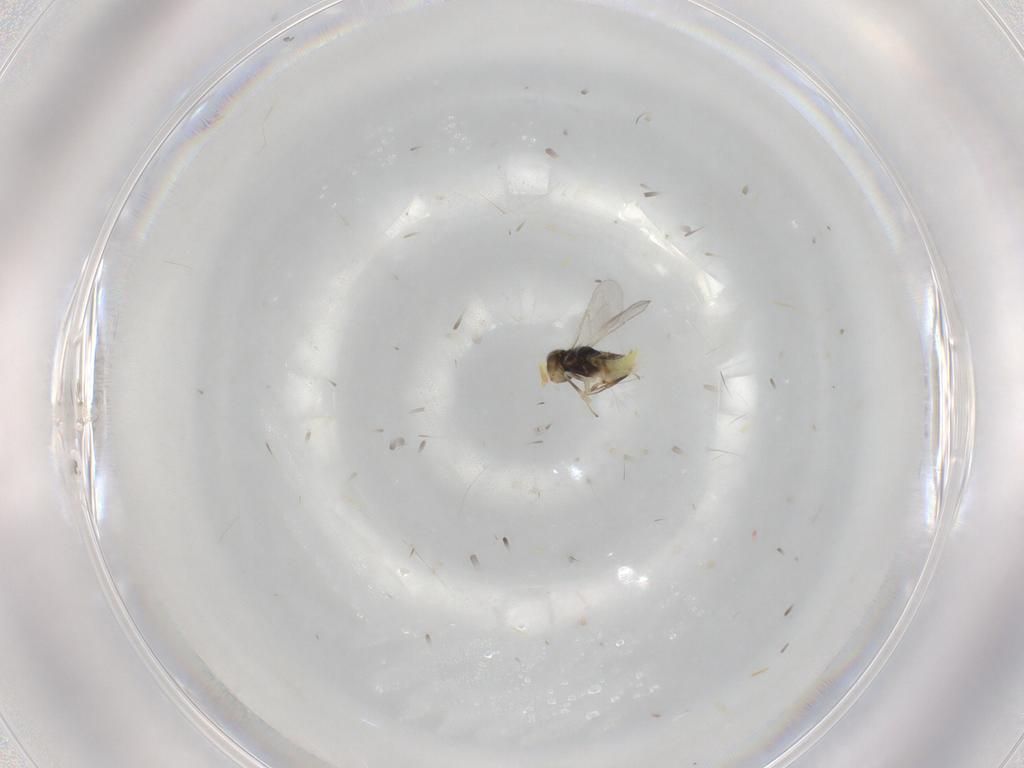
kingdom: Animalia
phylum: Arthropoda
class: Insecta
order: Hymenoptera
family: Aphelinidae
